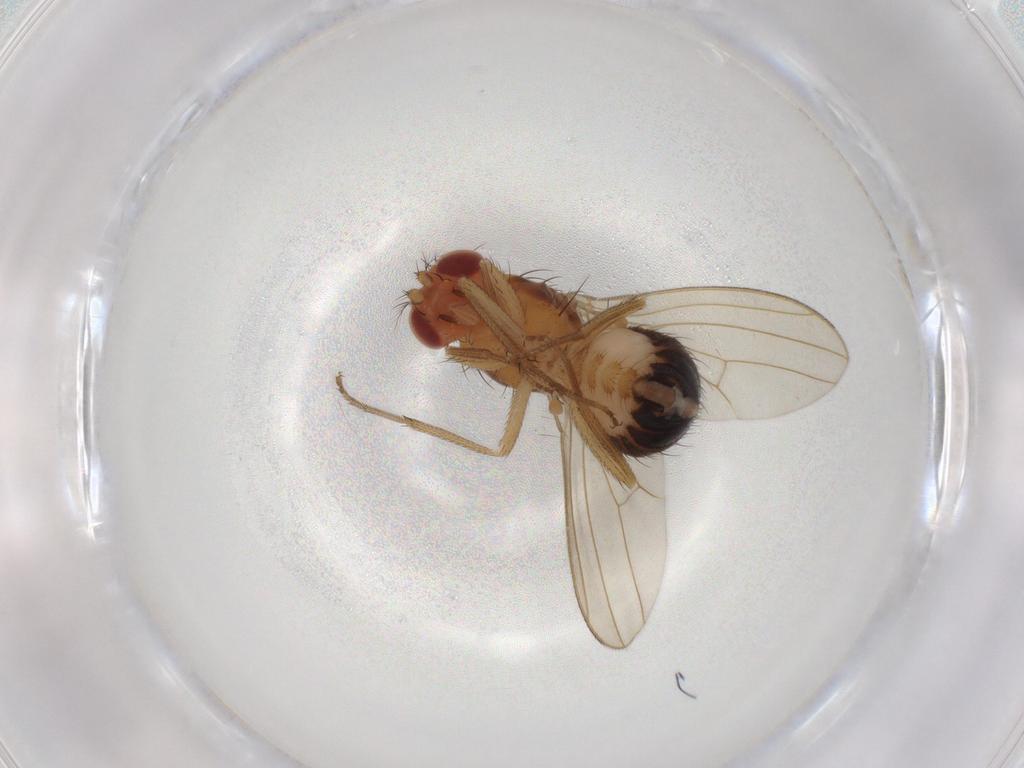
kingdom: Animalia
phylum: Arthropoda
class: Insecta
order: Diptera
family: Drosophilidae
